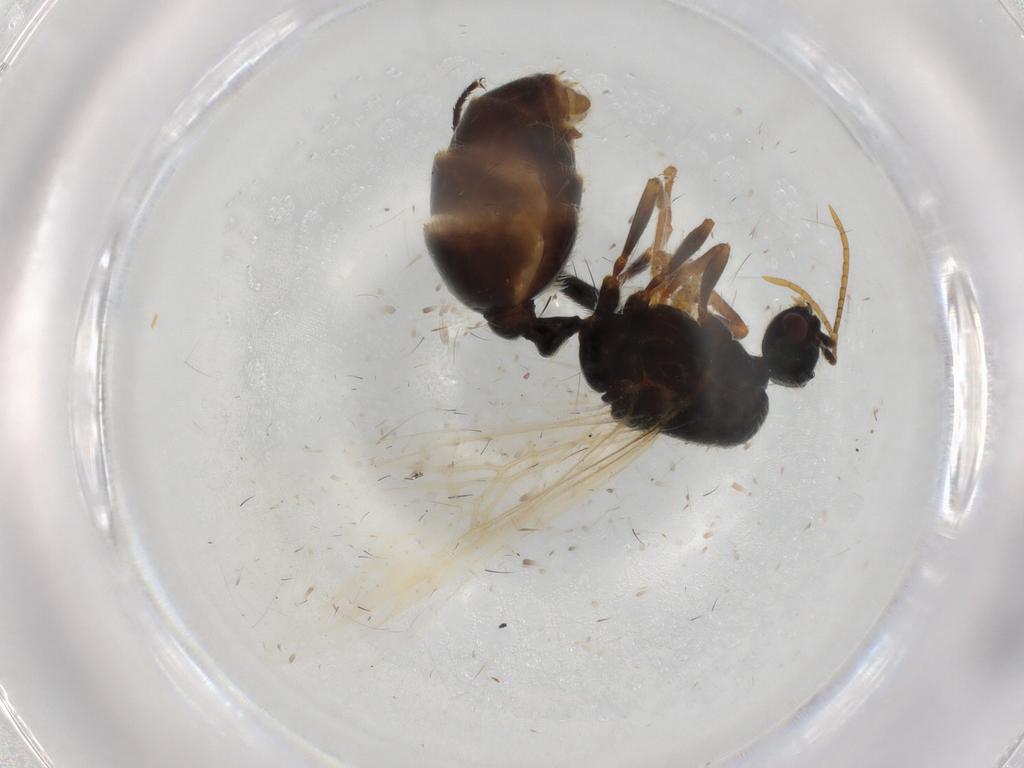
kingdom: Animalia
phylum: Arthropoda
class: Insecta
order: Hymenoptera
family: Formicidae
